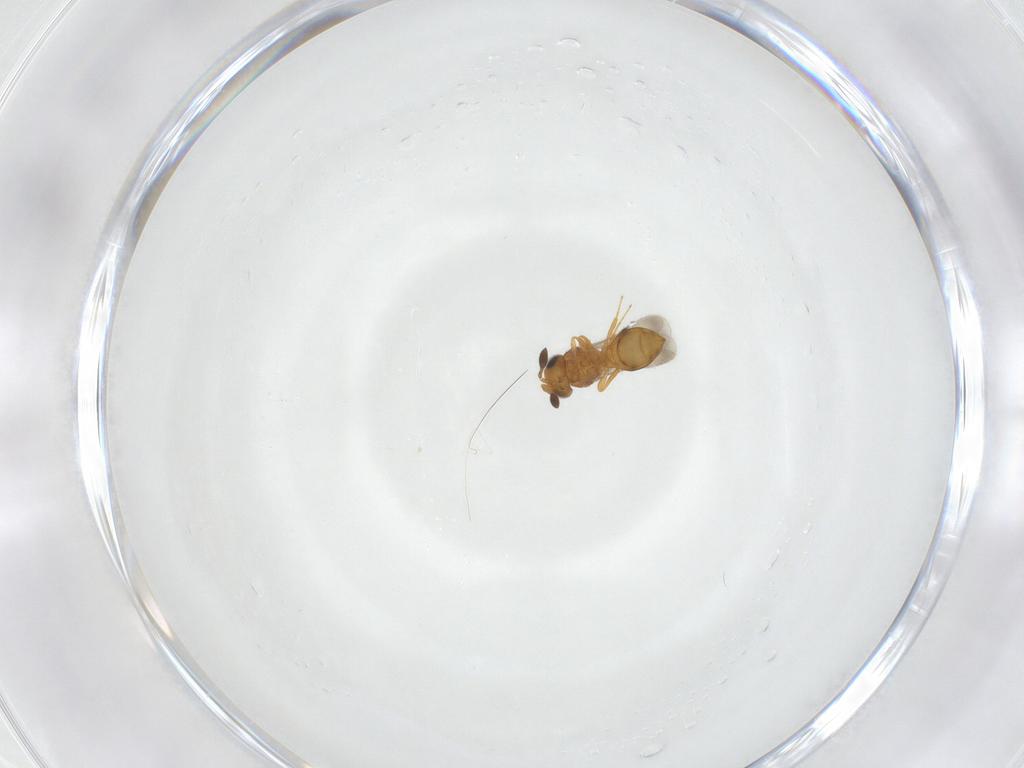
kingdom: Animalia
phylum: Arthropoda
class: Insecta
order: Hymenoptera
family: Scelionidae
